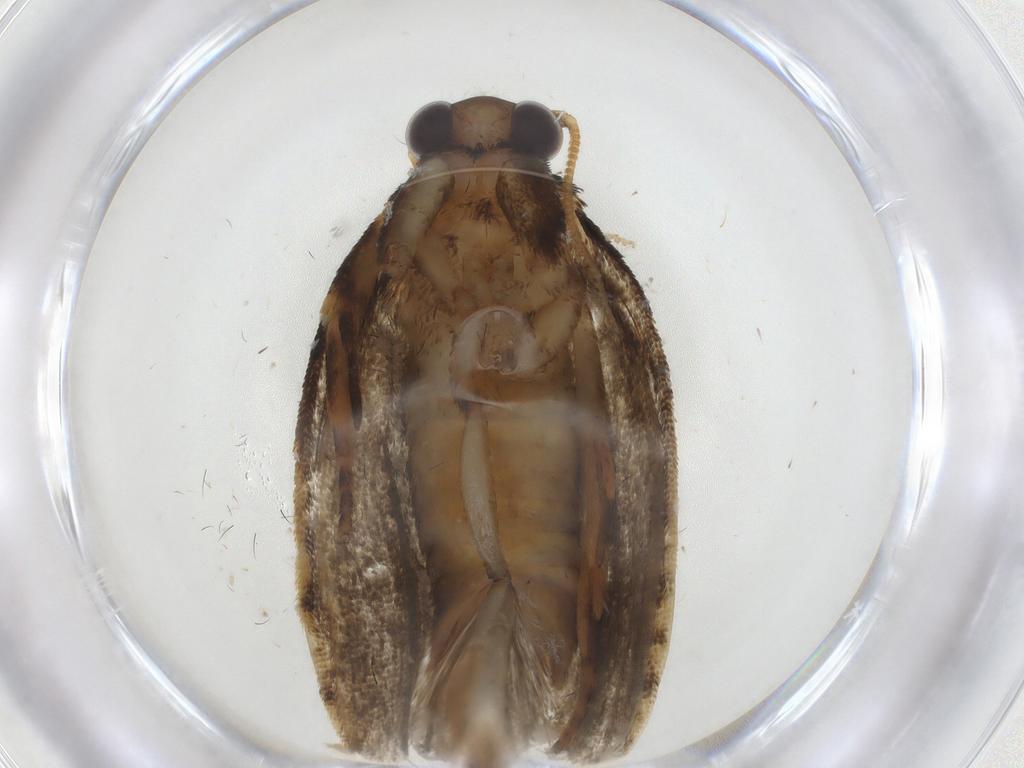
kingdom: Animalia
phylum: Arthropoda
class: Insecta
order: Lepidoptera
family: Tineidae
